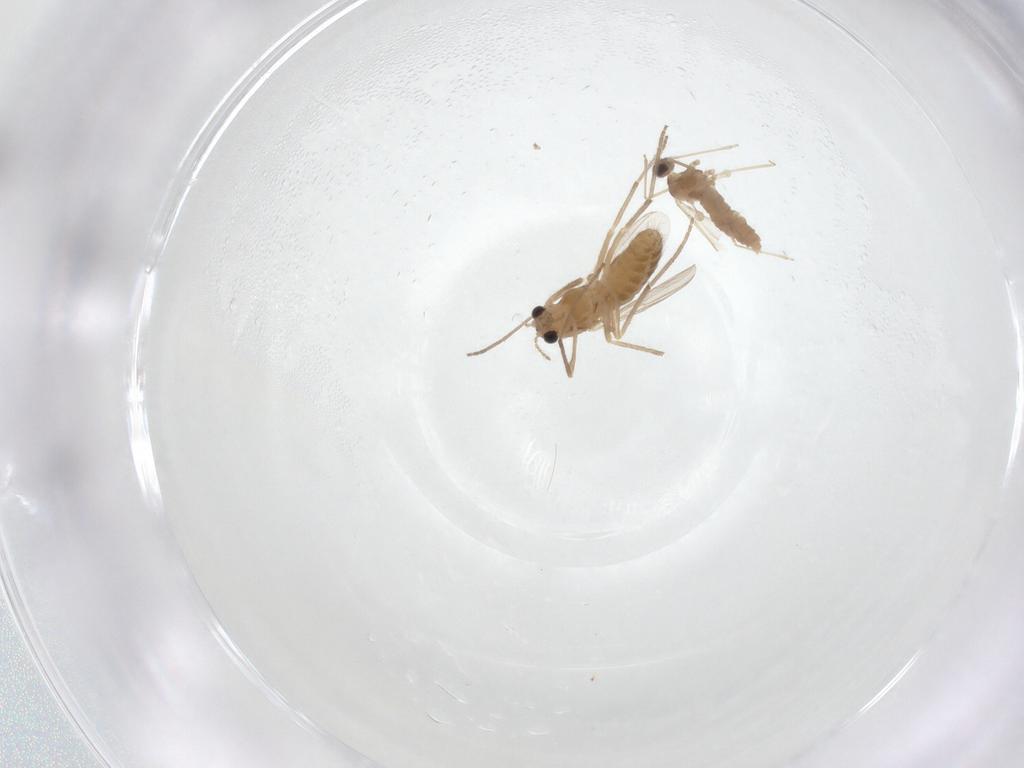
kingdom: Animalia
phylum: Arthropoda
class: Insecta
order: Diptera
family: Chironomidae
